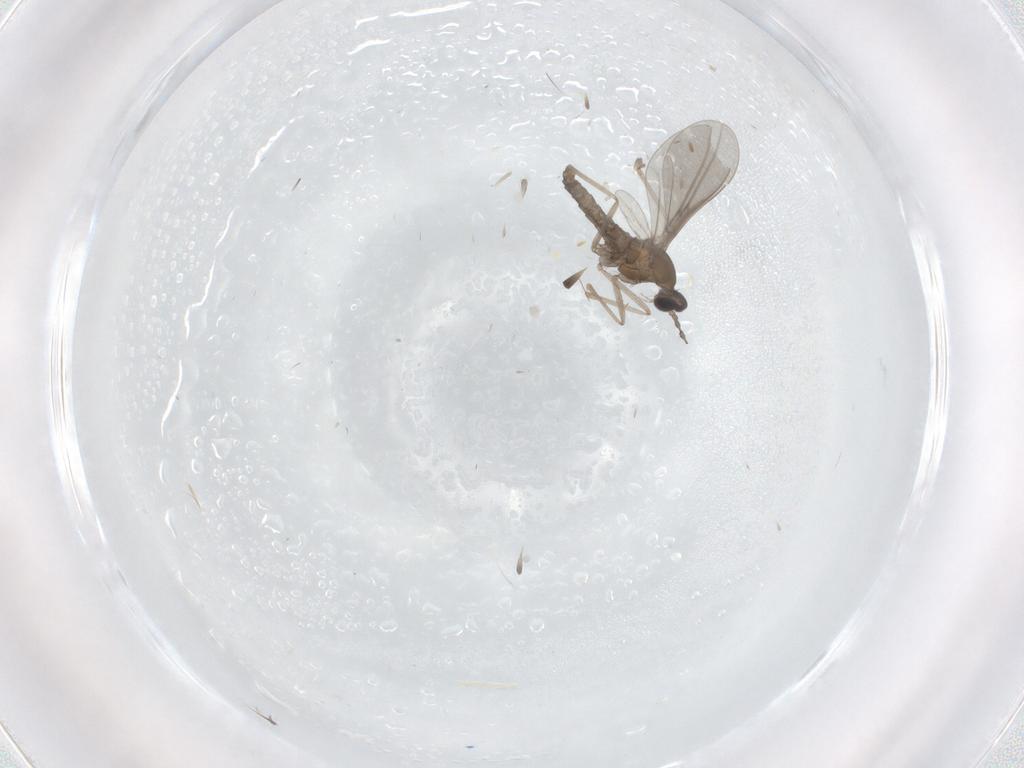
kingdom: Animalia
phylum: Arthropoda
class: Insecta
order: Diptera
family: Cecidomyiidae
